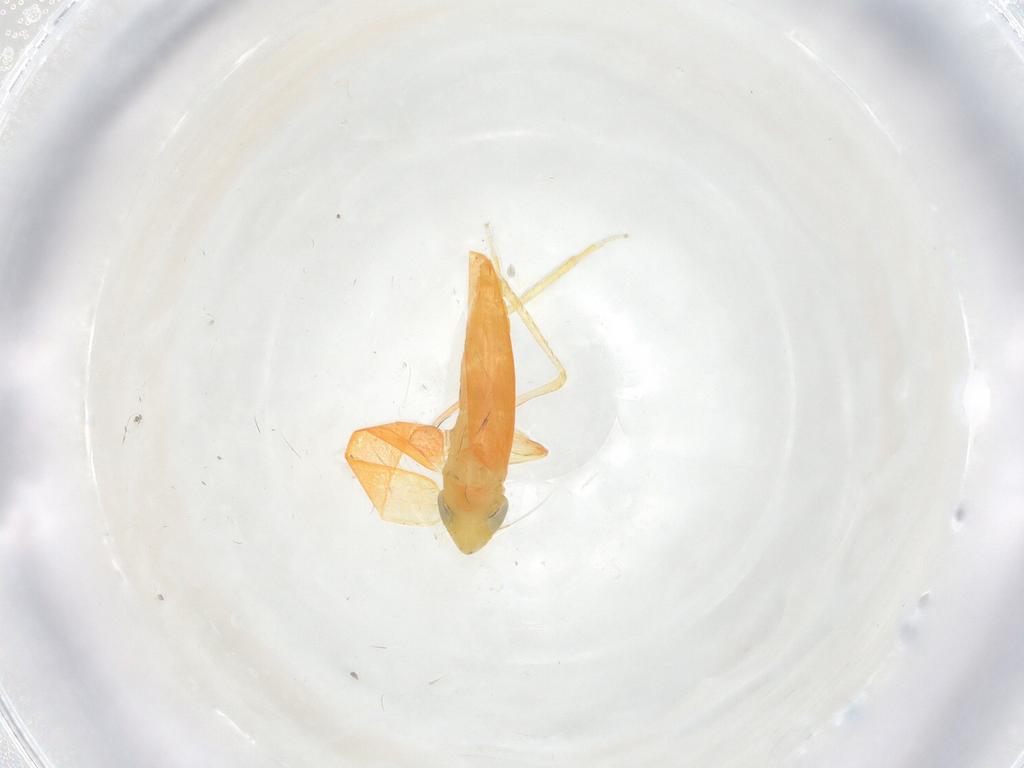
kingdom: Animalia
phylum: Arthropoda
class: Insecta
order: Hemiptera
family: Cicadellidae
